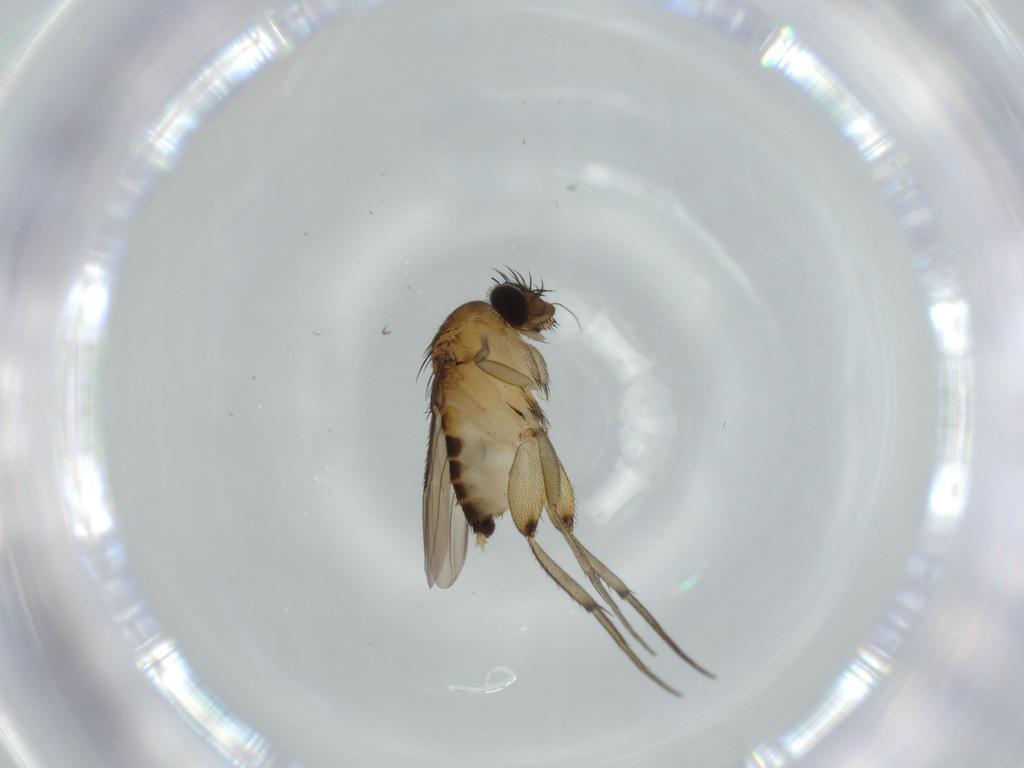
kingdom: Animalia
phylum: Arthropoda
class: Insecta
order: Diptera
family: Phoridae
